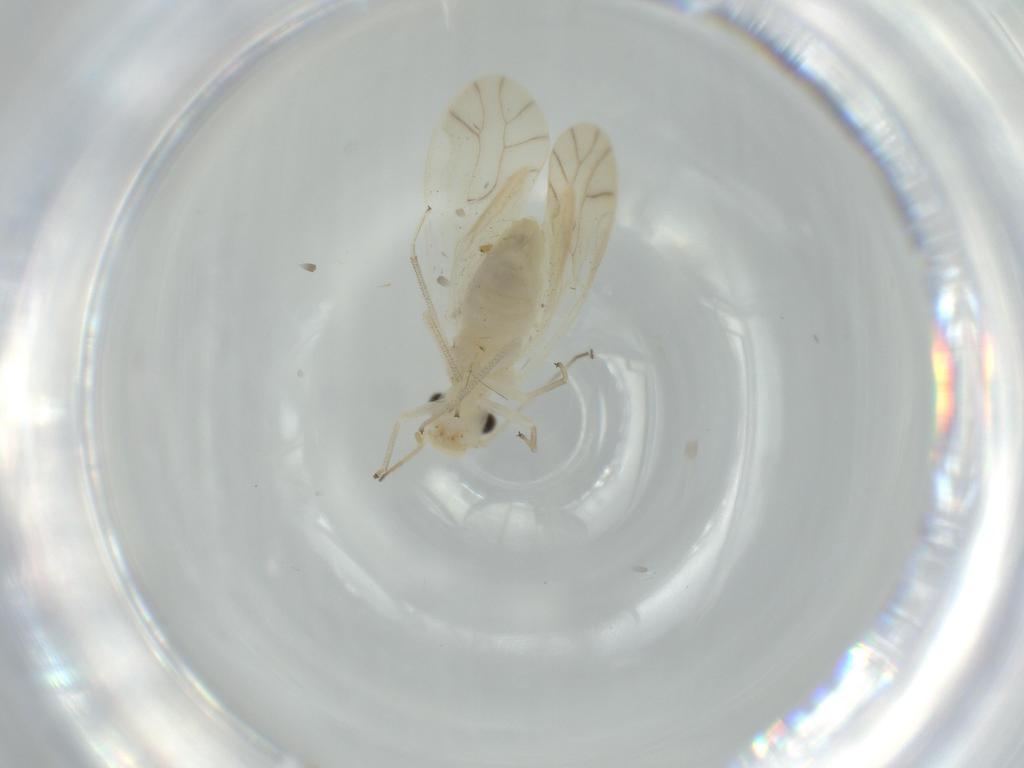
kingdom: Animalia
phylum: Arthropoda
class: Insecta
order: Psocodea
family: Caeciliusidae
